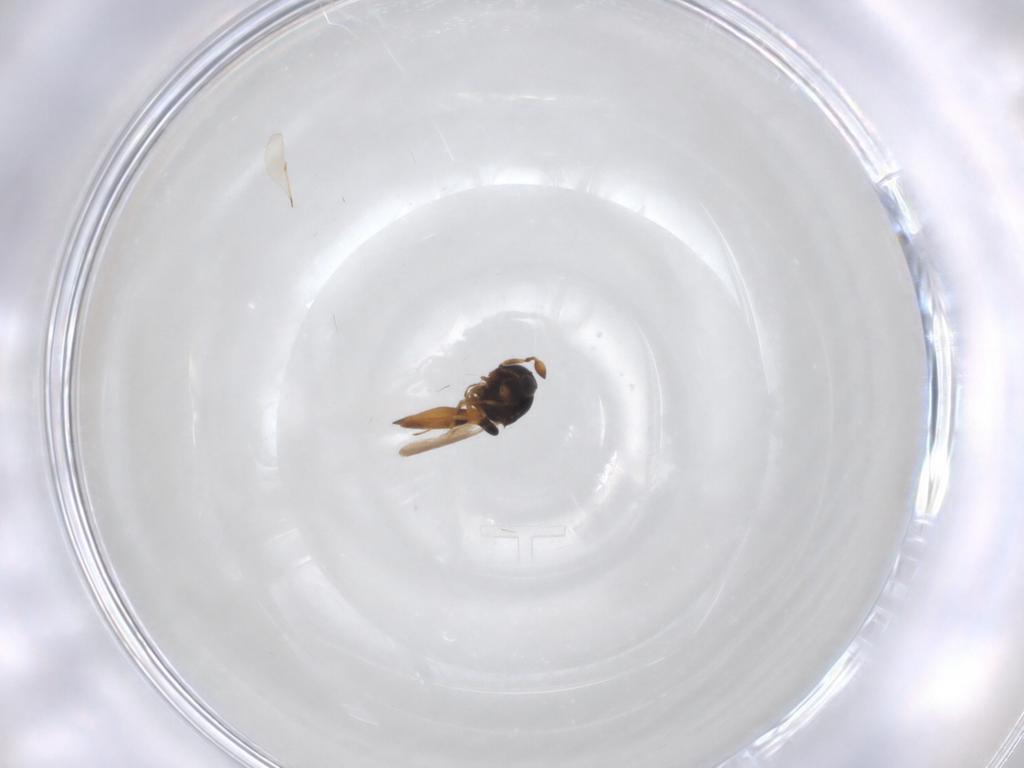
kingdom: Animalia
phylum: Arthropoda
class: Insecta
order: Hymenoptera
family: Scelionidae
